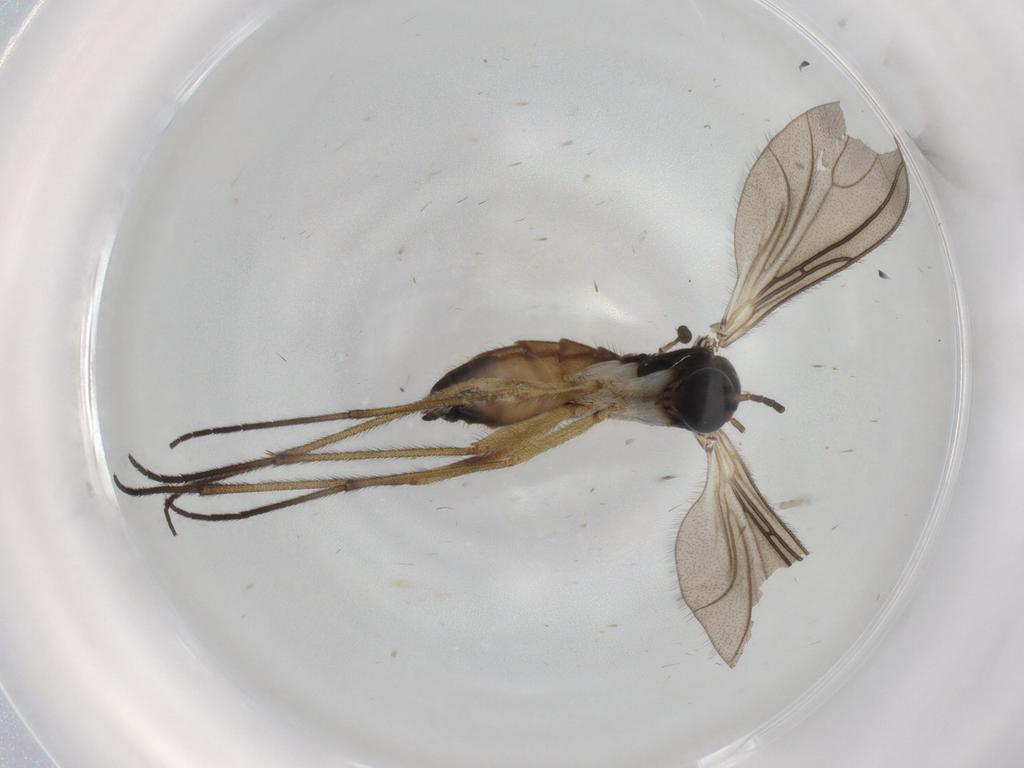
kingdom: Animalia
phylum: Arthropoda
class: Insecta
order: Diptera
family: Sciaridae
